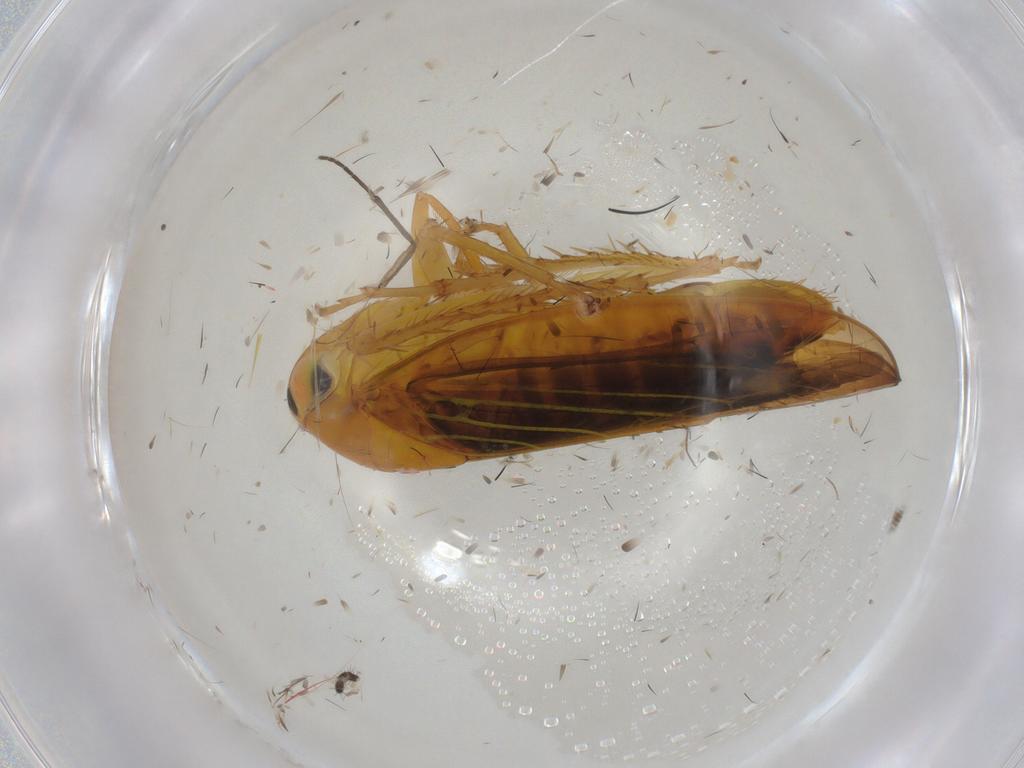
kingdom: Animalia
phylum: Arthropoda
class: Insecta
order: Hemiptera
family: Cicadellidae
